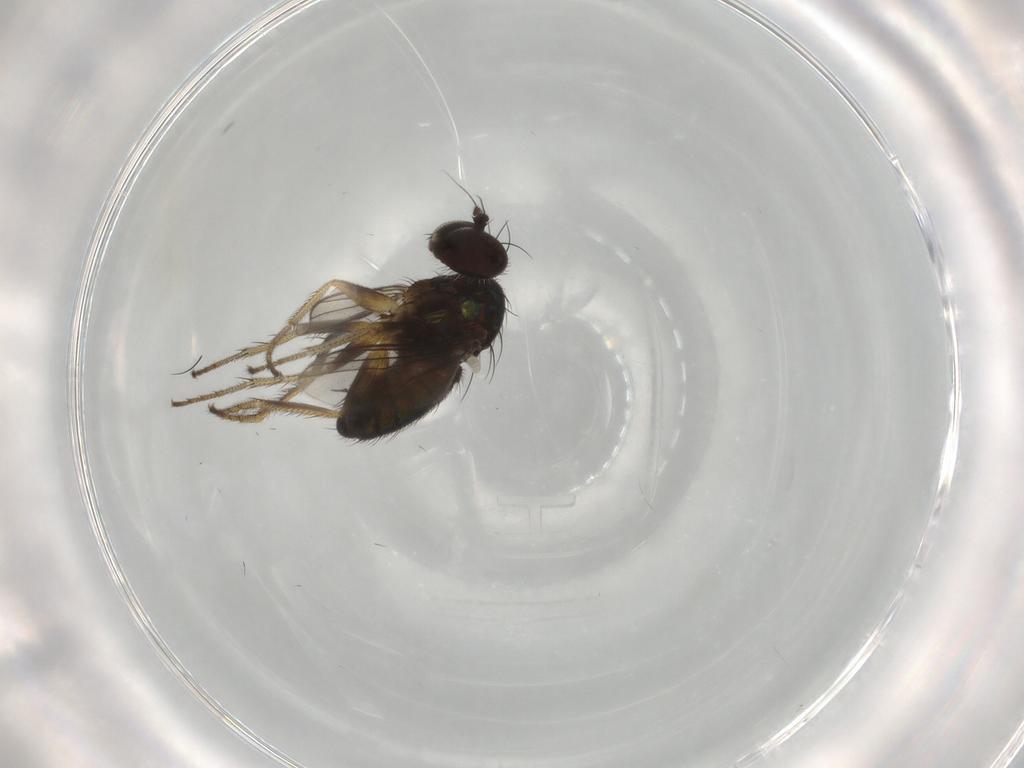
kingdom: Animalia
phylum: Arthropoda
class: Insecta
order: Diptera
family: Dolichopodidae
